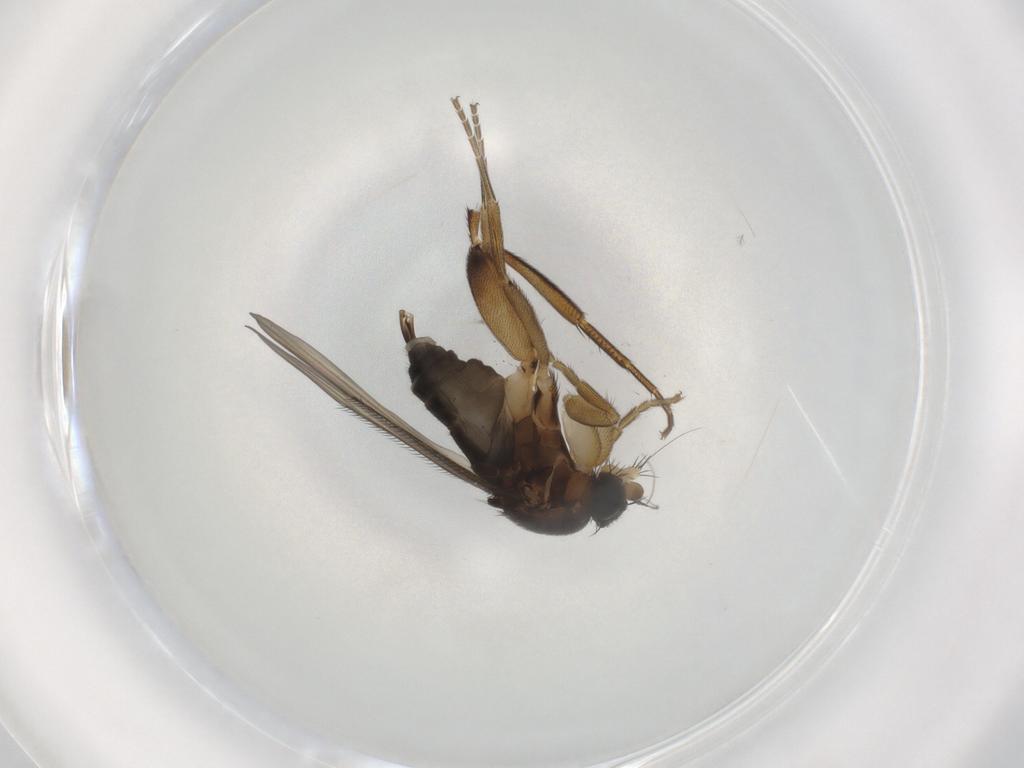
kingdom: Animalia
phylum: Arthropoda
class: Insecta
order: Diptera
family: Phoridae
